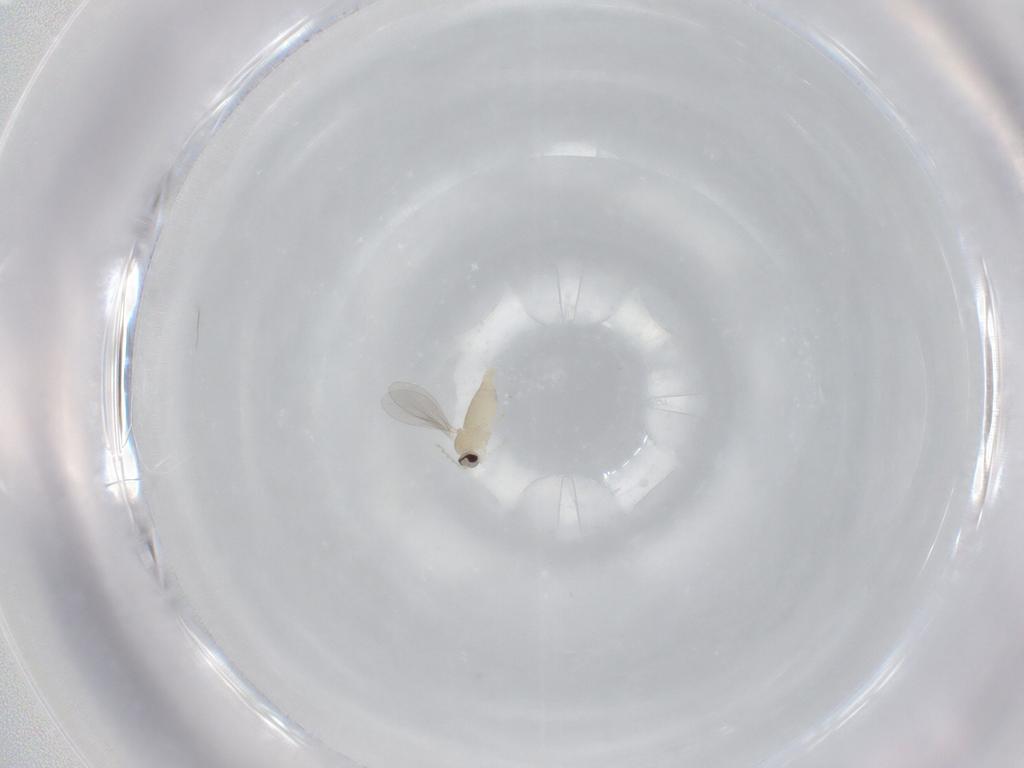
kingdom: Animalia
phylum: Arthropoda
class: Insecta
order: Diptera
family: Cecidomyiidae
